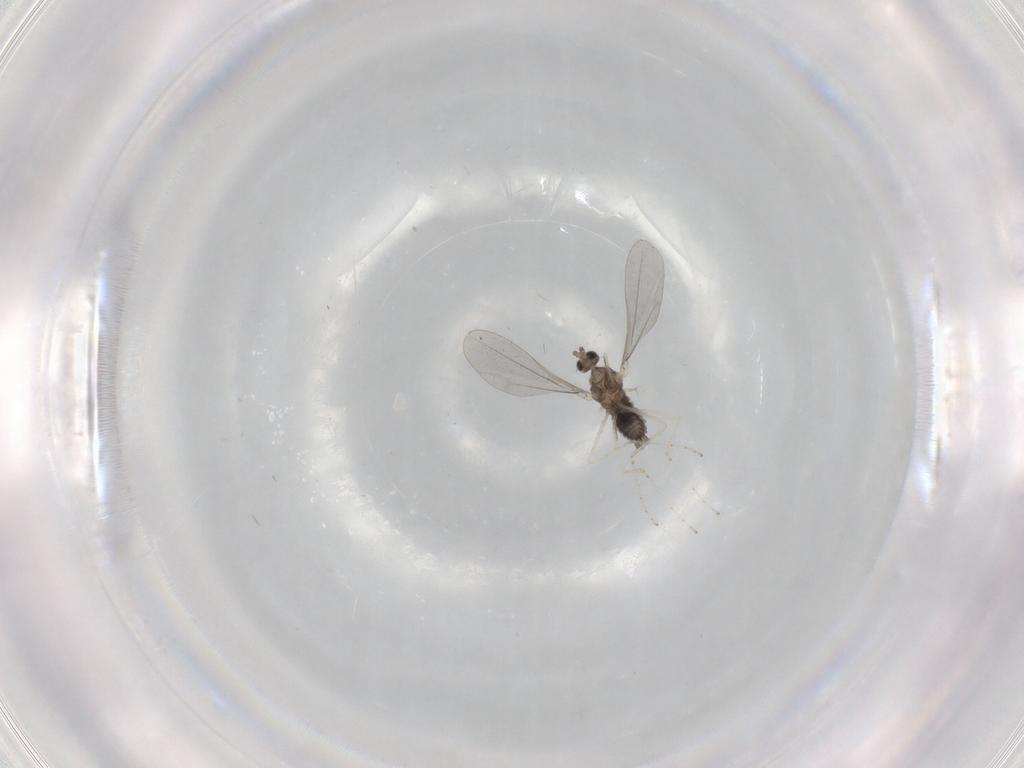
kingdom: Animalia
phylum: Arthropoda
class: Insecta
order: Diptera
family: Cecidomyiidae
